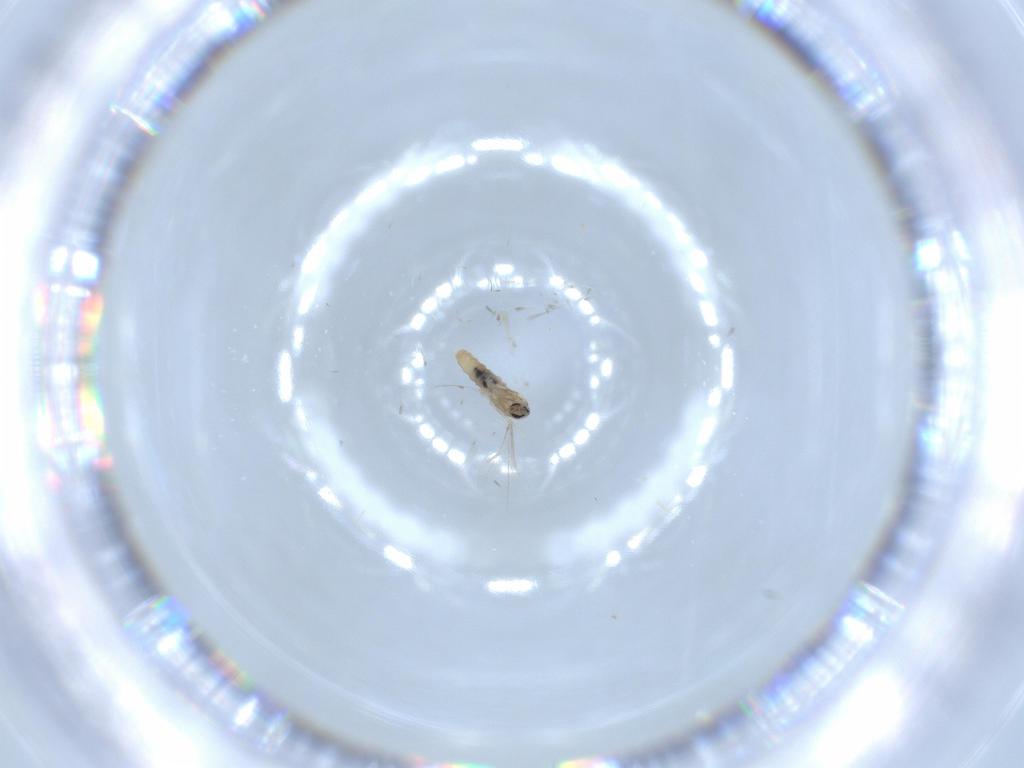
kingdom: Animalia
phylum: Arthropoda
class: Insecta
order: Diptera
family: Cecidomyiidae
